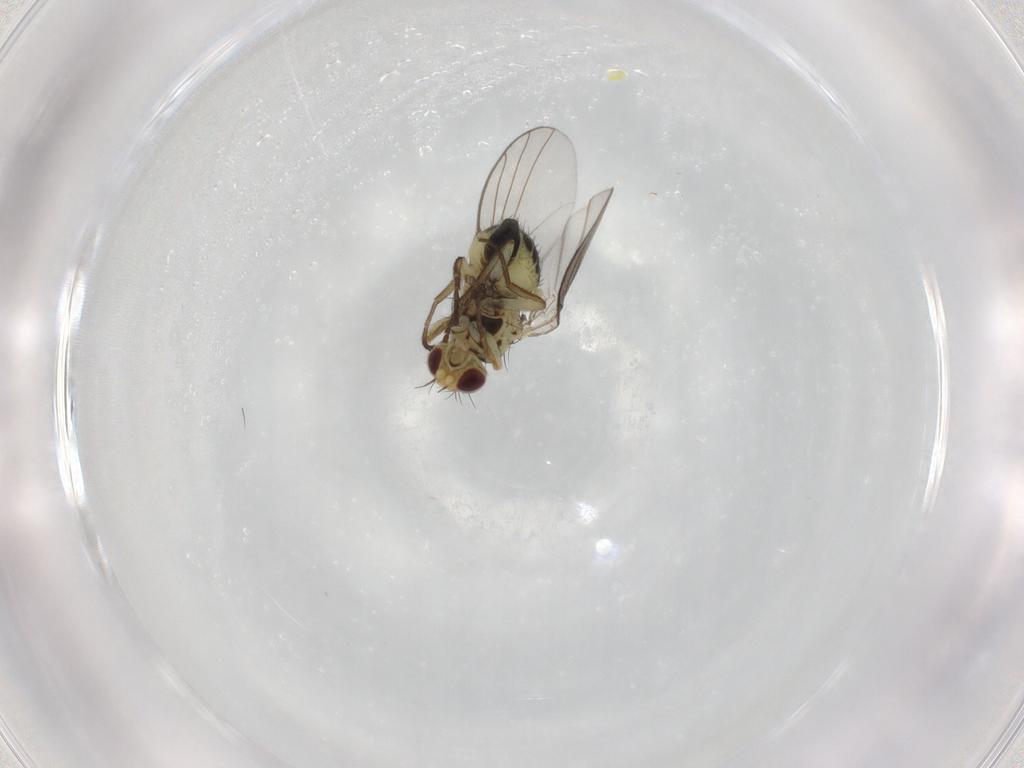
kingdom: Animalia
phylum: Arthropoda
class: Insecta
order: Diptera
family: Agromyzidae
